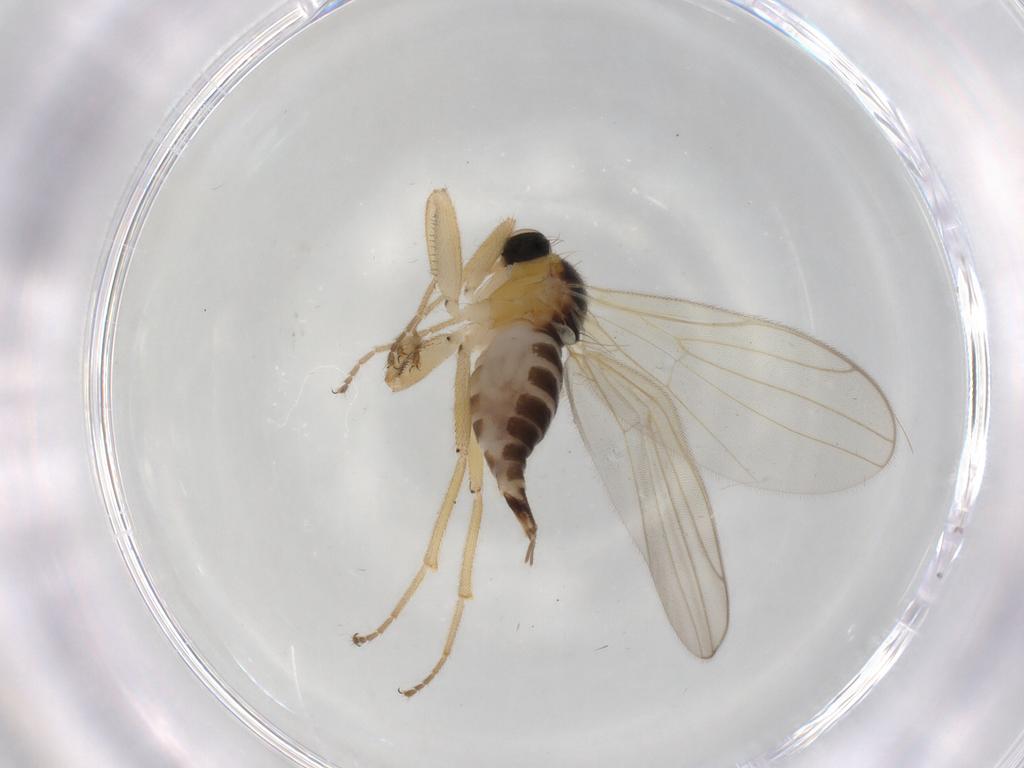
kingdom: Animalia
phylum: Arthropoda
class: Insecta
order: Diptera
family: Hybotidae
